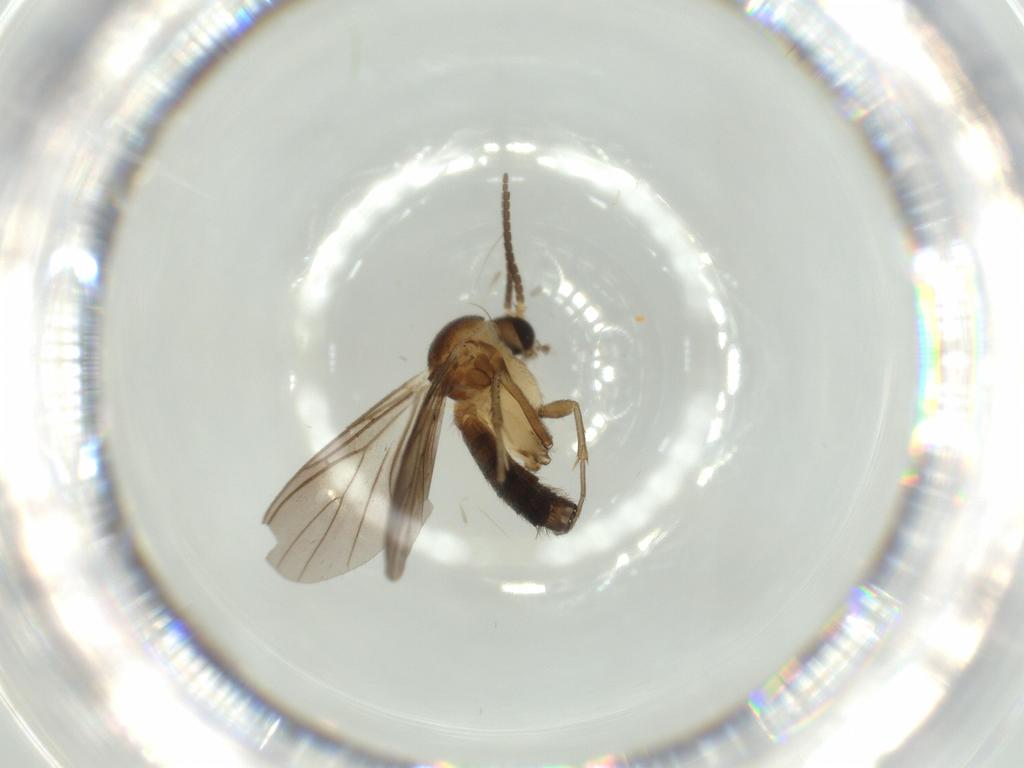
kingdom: Animalia
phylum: Arthropoda
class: Insecta
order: Diptera
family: Mycetophilidae
